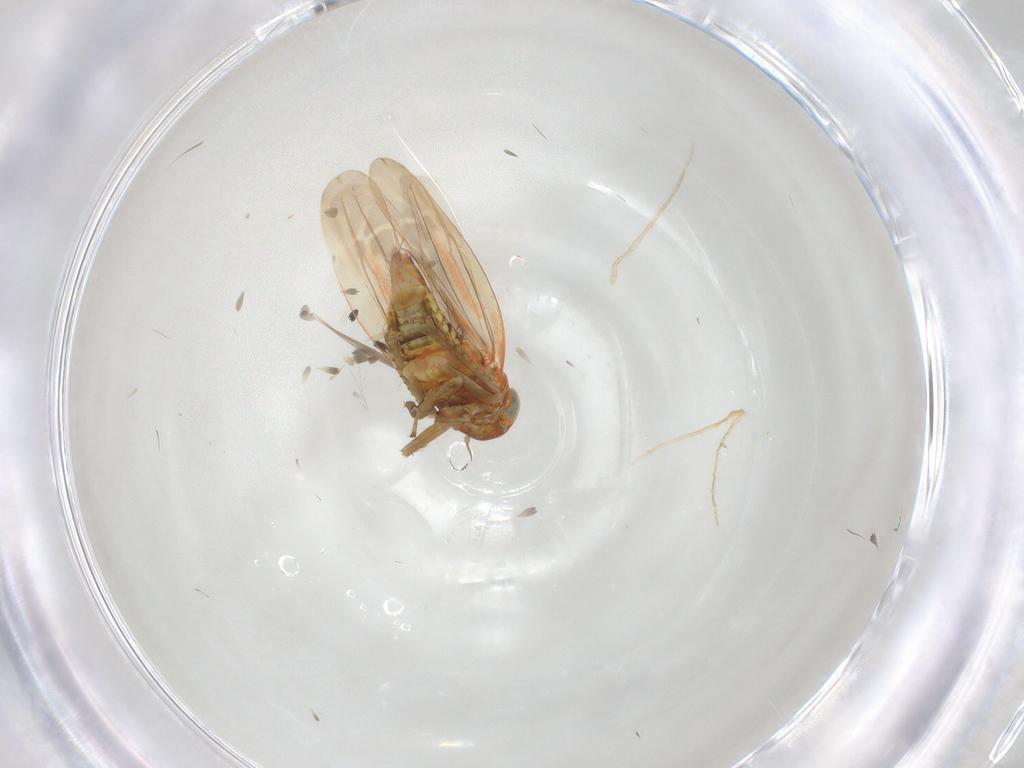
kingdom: Animalia
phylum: Arthropoda
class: Insecta
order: Hemiptera
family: Cicadellidae
